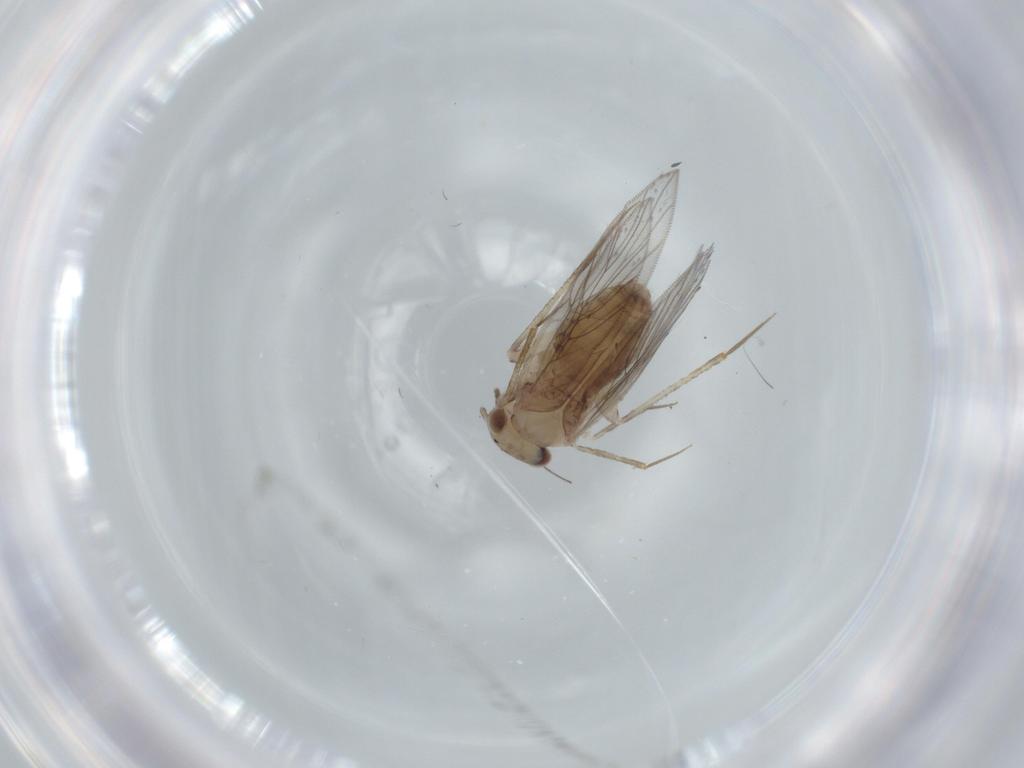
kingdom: Animalia
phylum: Arthropoda
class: Insecta
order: Psocodea
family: Lepidopsocidae
